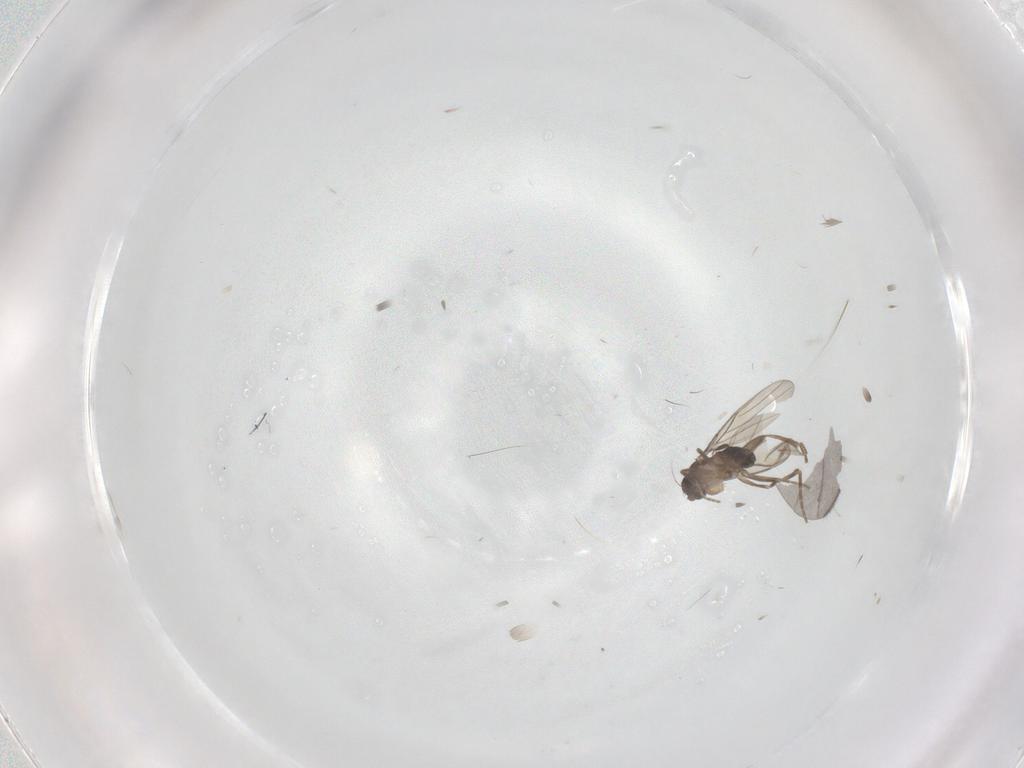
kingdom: Animalia
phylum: Arthropoda
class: Insecta
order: Diptera
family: Phoridae
